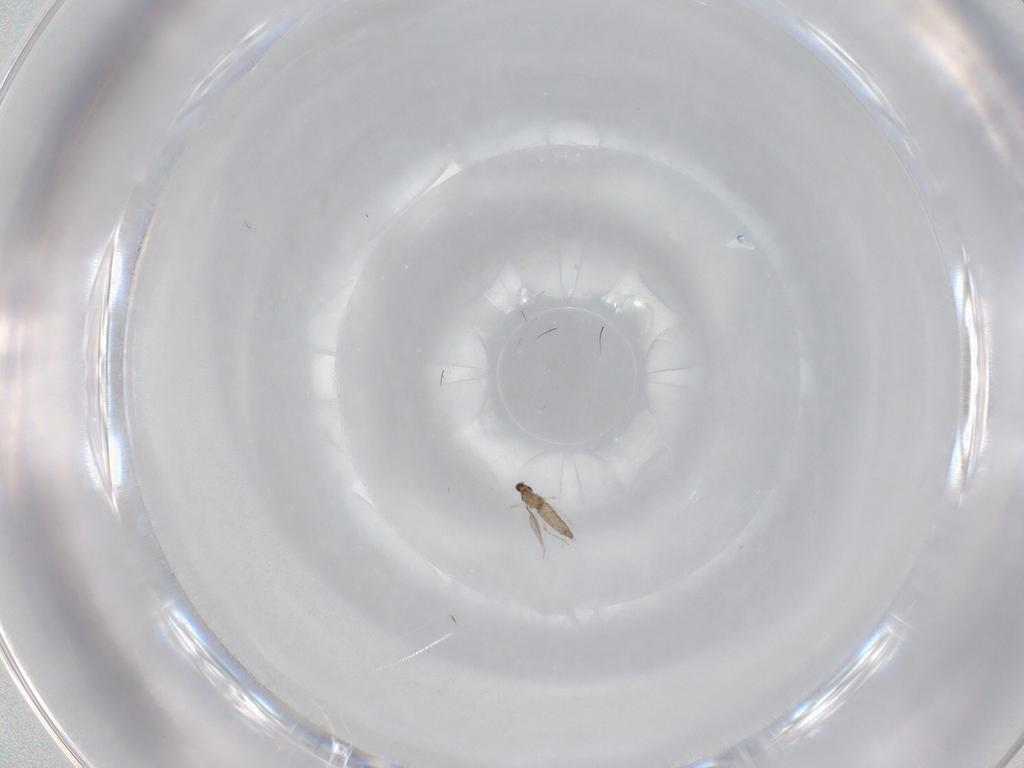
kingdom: Animalia
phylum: Arthropoda
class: Insecta
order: Diptera
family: Cecidomyiidae
